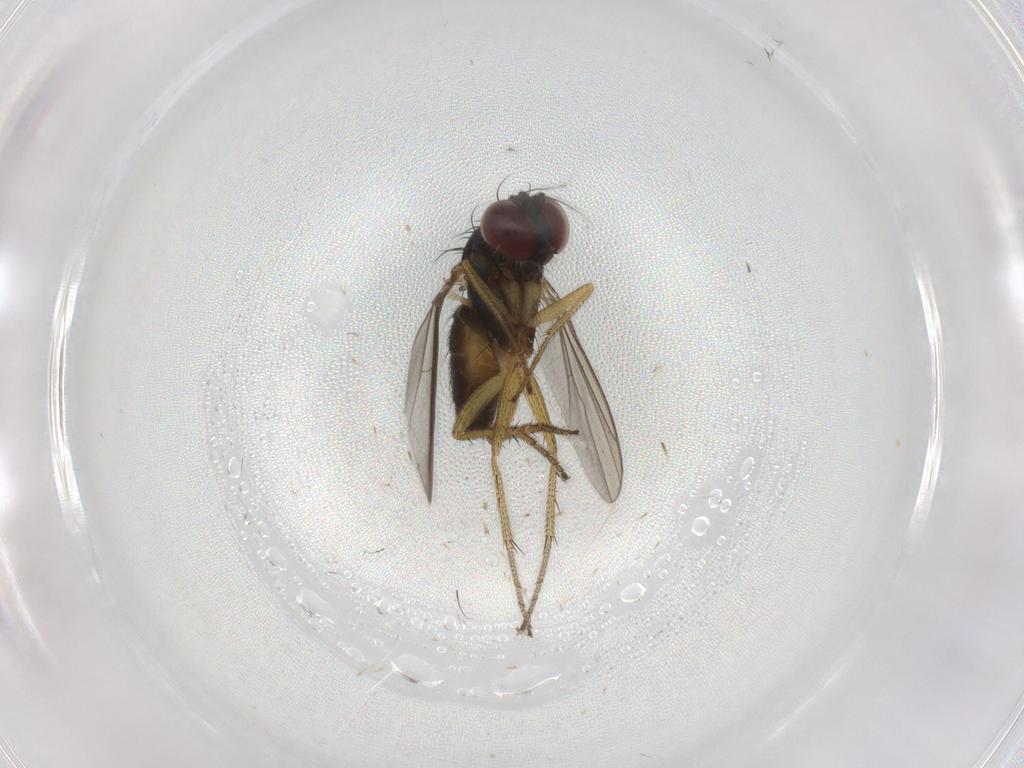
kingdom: Animalia
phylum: Arthropoda
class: Insecta
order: Diptera
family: Dolichopodidae
